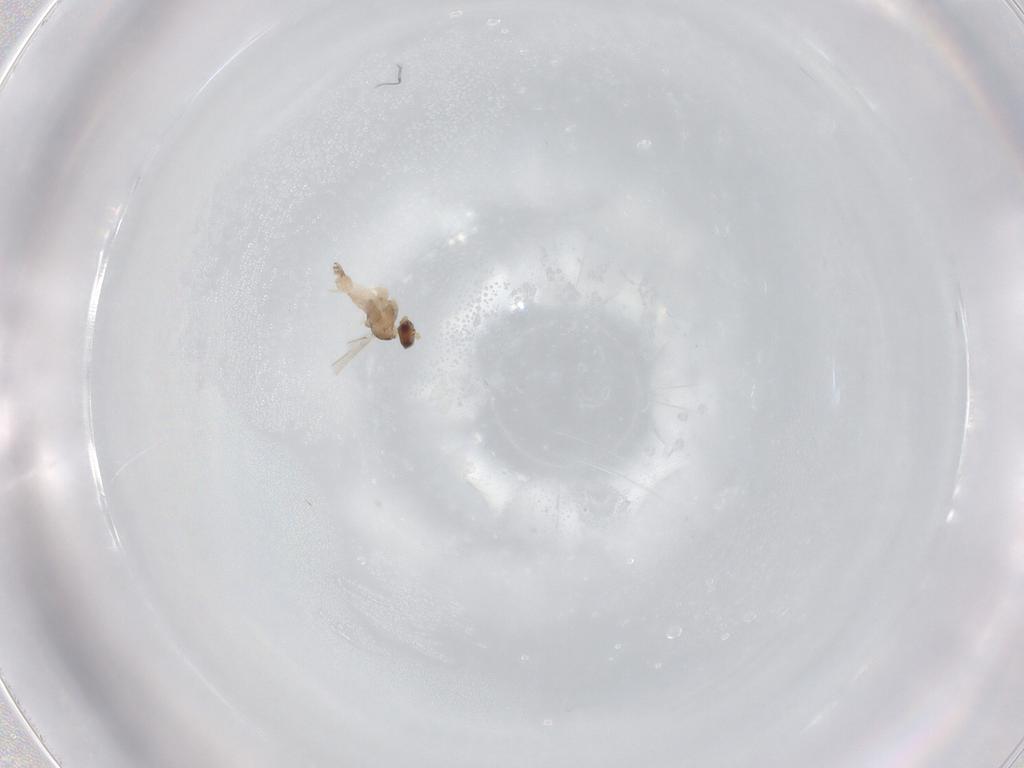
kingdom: Animalia
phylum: Arthropoda
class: Insecta
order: Diptera
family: Cecidomyiidae
